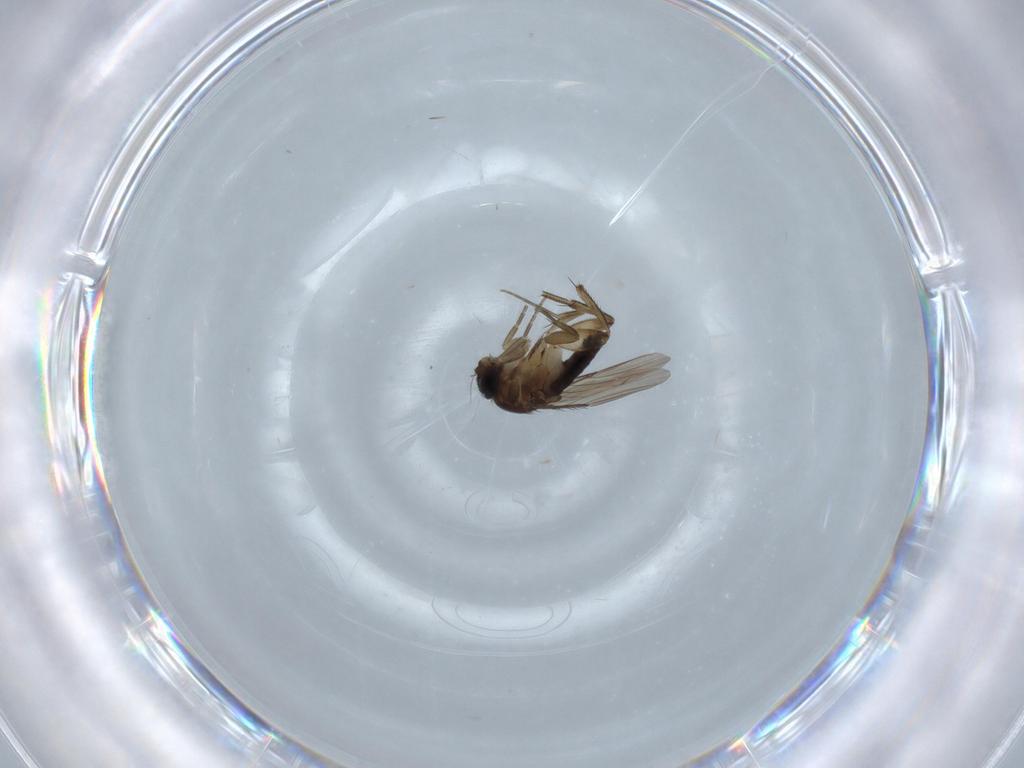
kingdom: Animalia
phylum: Arthropoda
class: Insecta
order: Diptera
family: Phoridae
